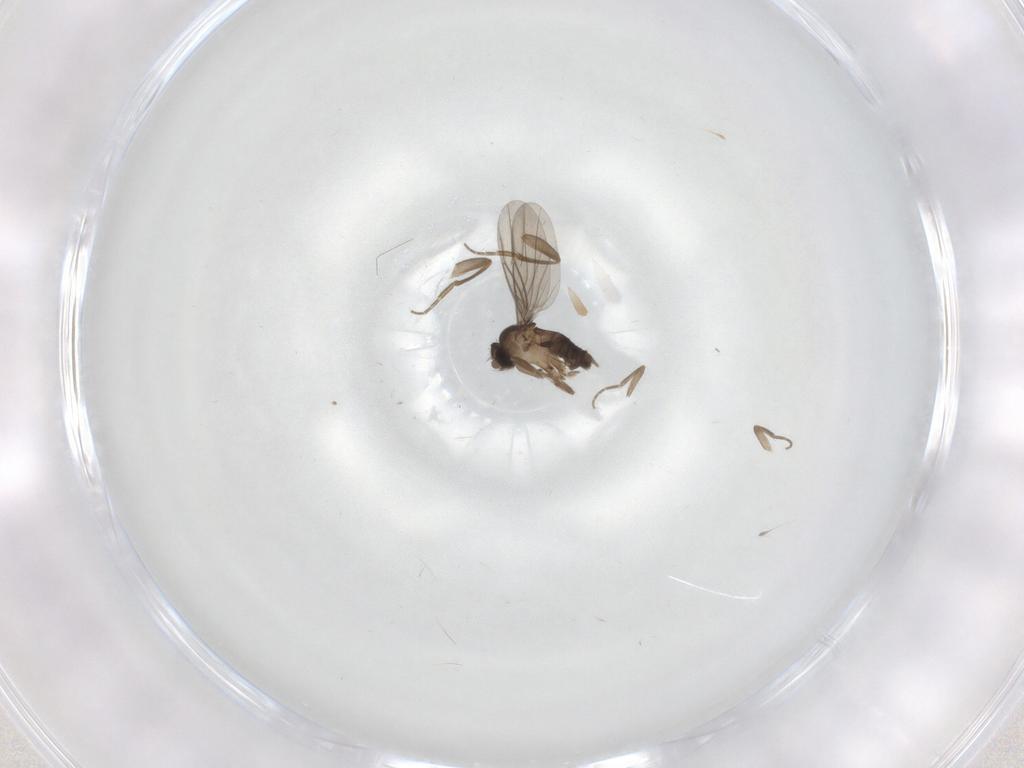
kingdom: Animalia
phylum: Arthropoda
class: Insecta
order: Diptera
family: Phoridae
